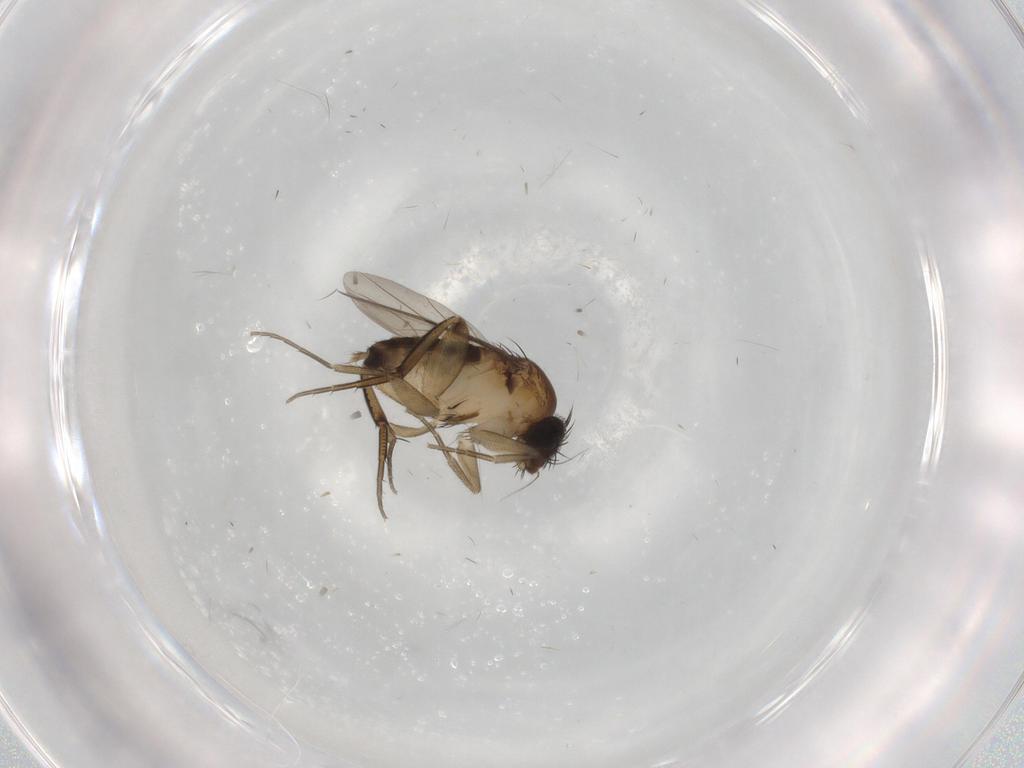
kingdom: Animalia
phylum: Arthropoda
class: Insecta
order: Diptera
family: Phoridae
